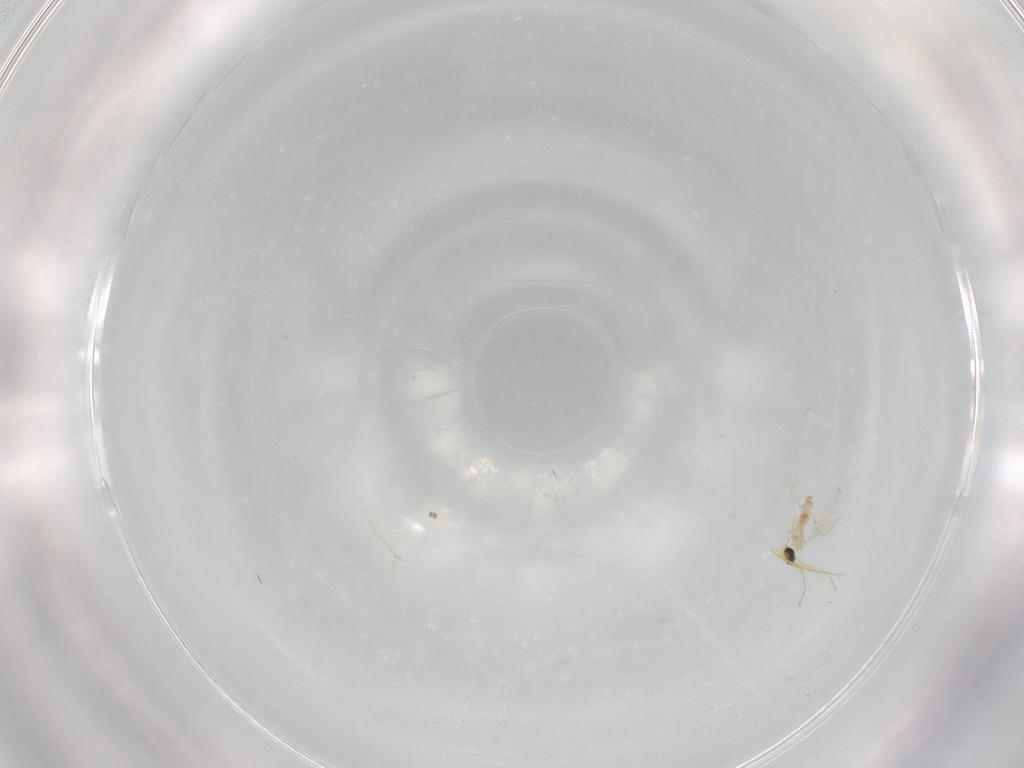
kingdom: Animalia
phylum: Arthropoda
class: Insecta
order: Diptera
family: Cecidomyiidae
